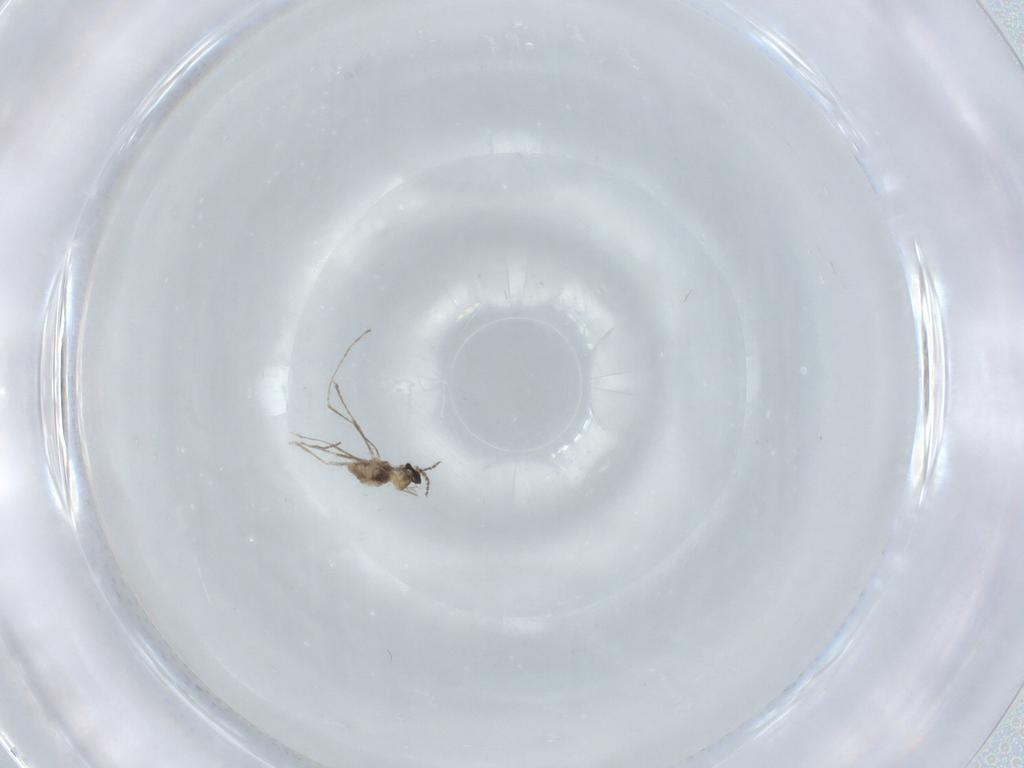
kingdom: Animalia
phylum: Arthropoda
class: Insecta
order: Diptera
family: Cecidomyiidae
